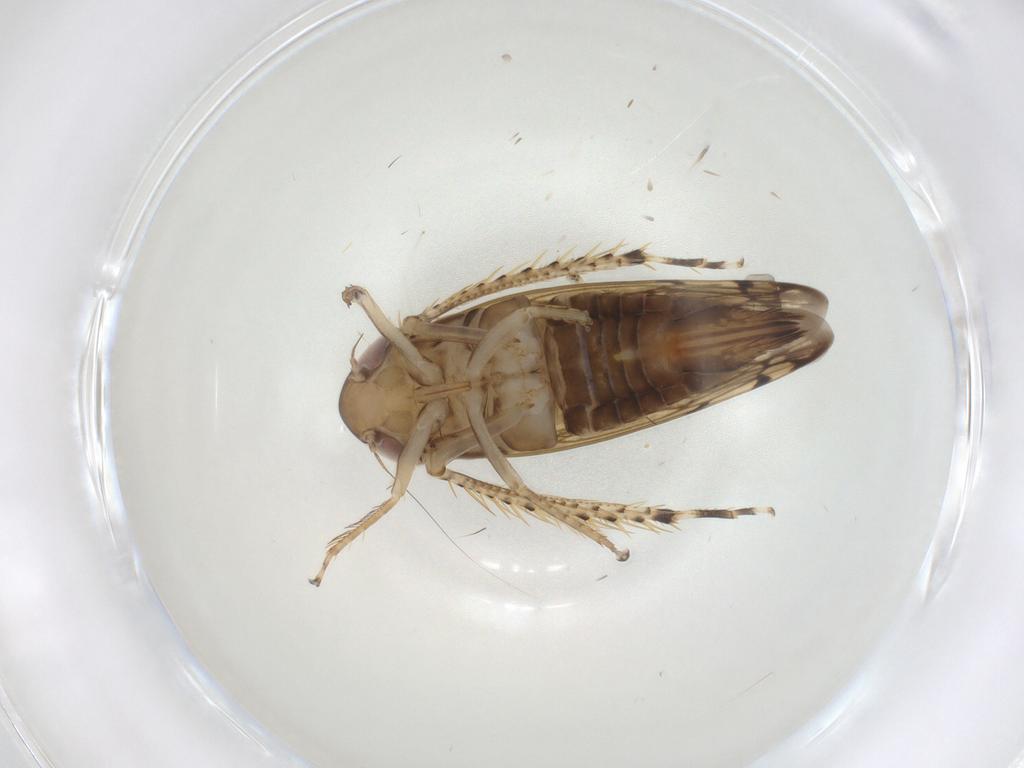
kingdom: Animalia
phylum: Arthropoda
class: Insecta
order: Hemiptera
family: Cicadellidae
